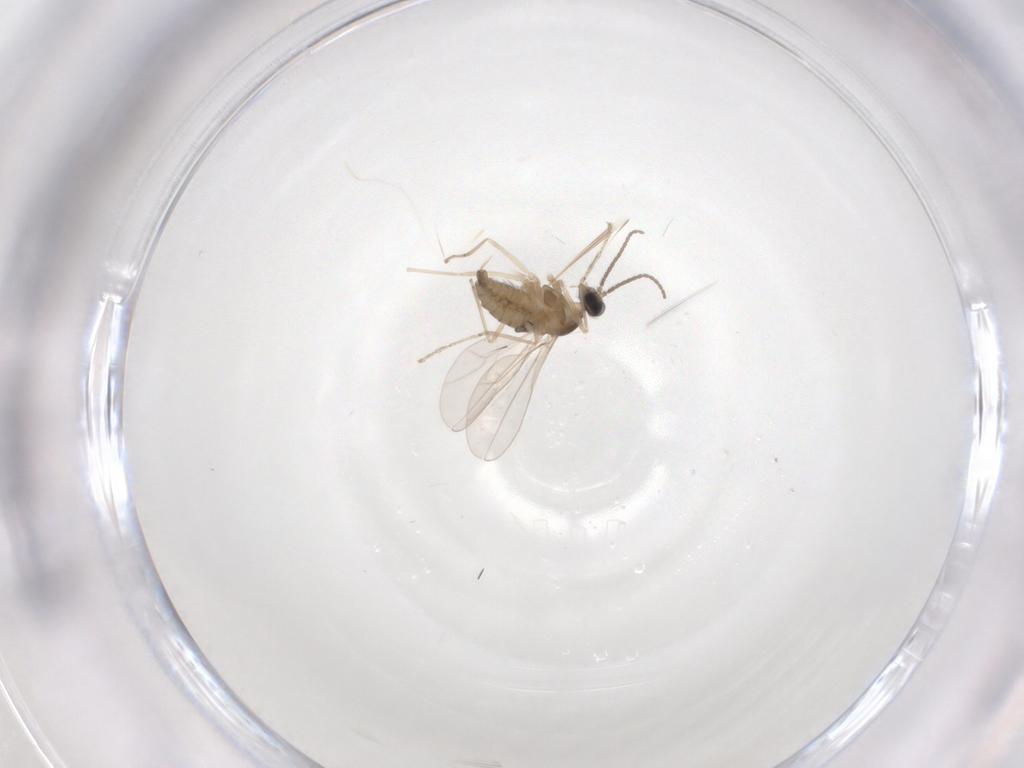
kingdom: Animalia
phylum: Arthropoda
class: Insecta
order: Diptera
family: Cecidomyiidae
